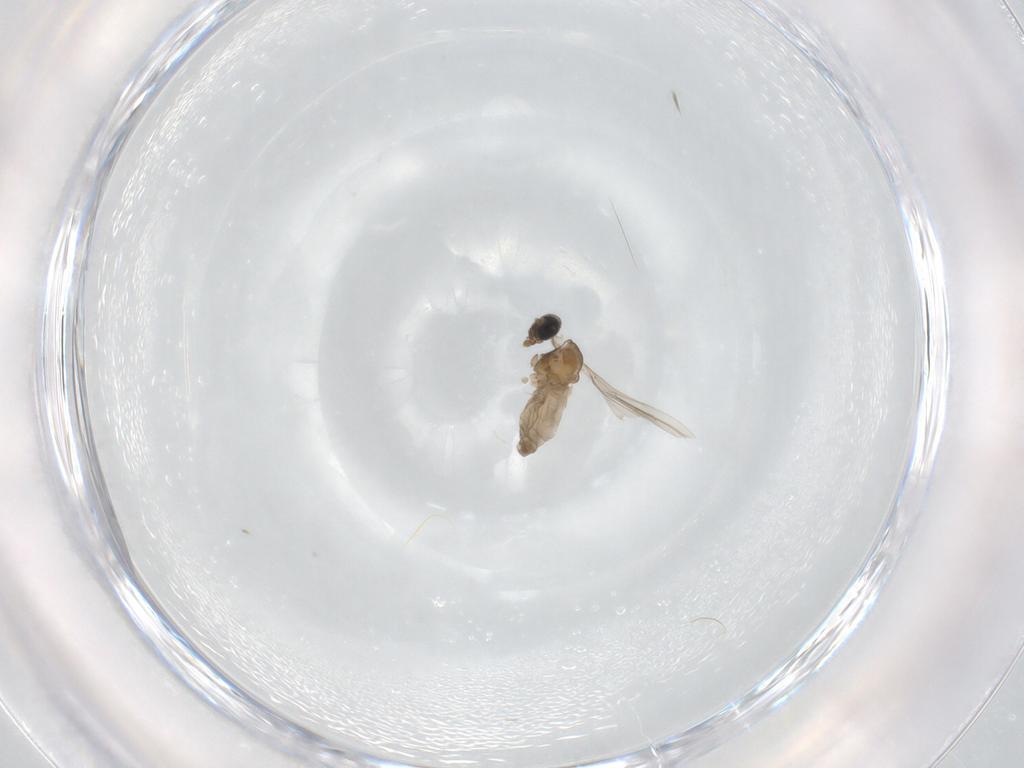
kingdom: Animalia
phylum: Arthropoda
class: Insecta
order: Diptera
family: Cecidomyiidae
